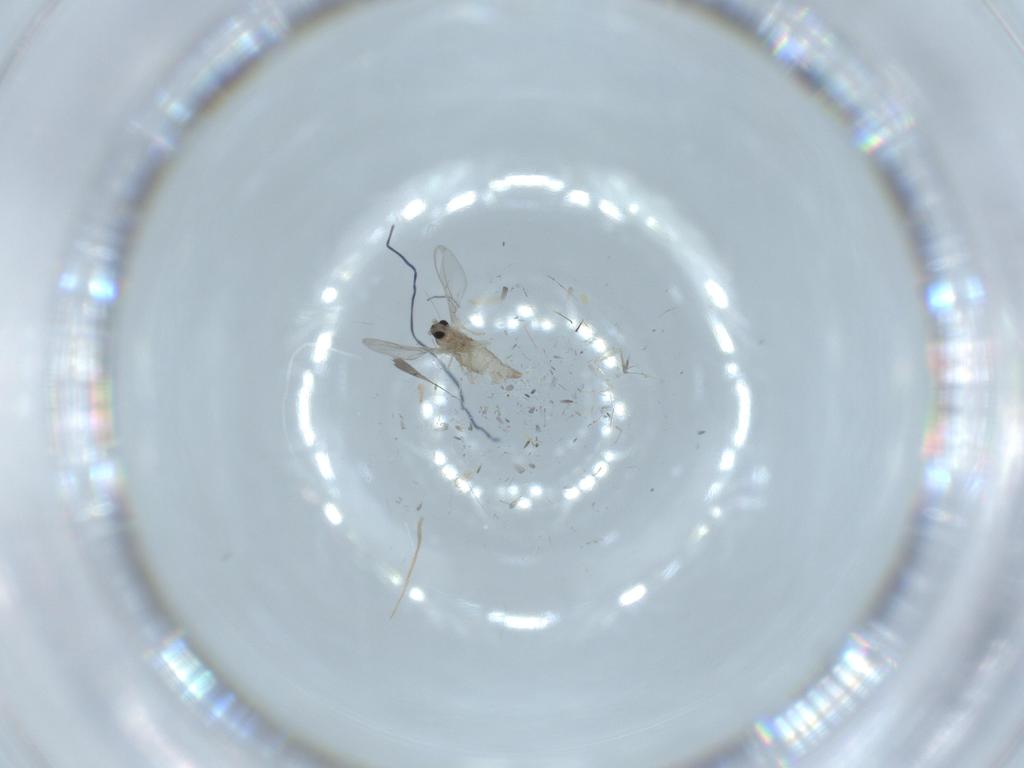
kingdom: Animalia
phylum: Arthropoda
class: Insecta
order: Diptera
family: Cecidomyiidae
